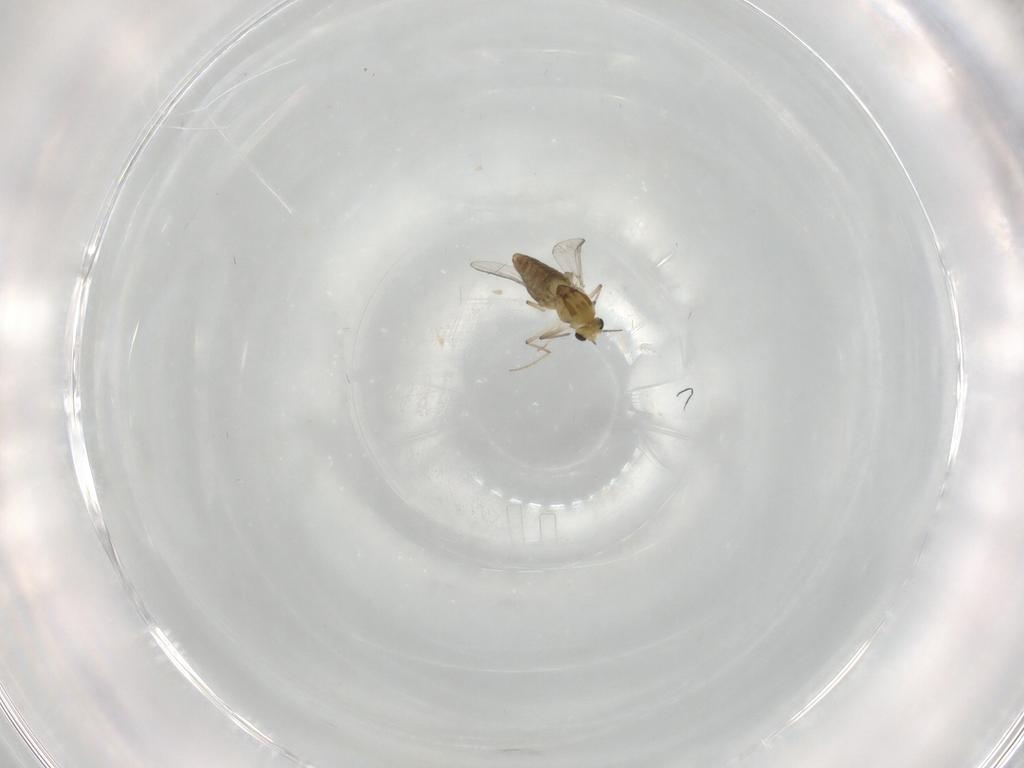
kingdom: Animalia
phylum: Arthropoda
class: Insecta
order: Diptera
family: Chironomidae
